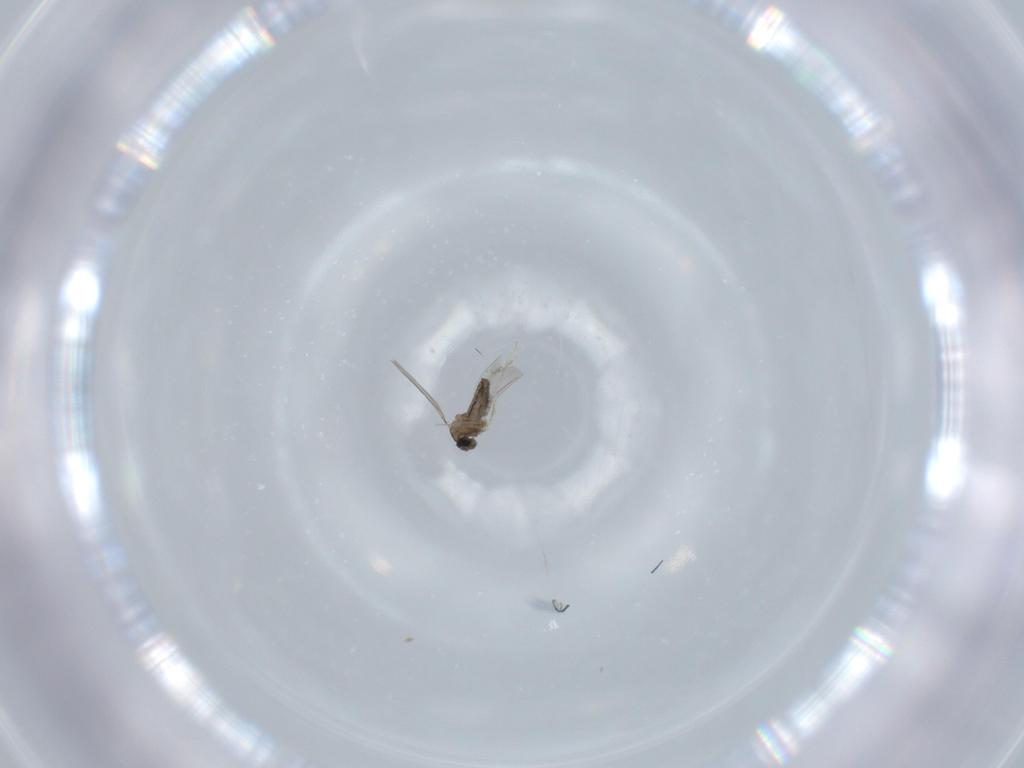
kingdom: Animalia
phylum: Arthropoda
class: Insecta
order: Diptera
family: Cecidomyiidae
